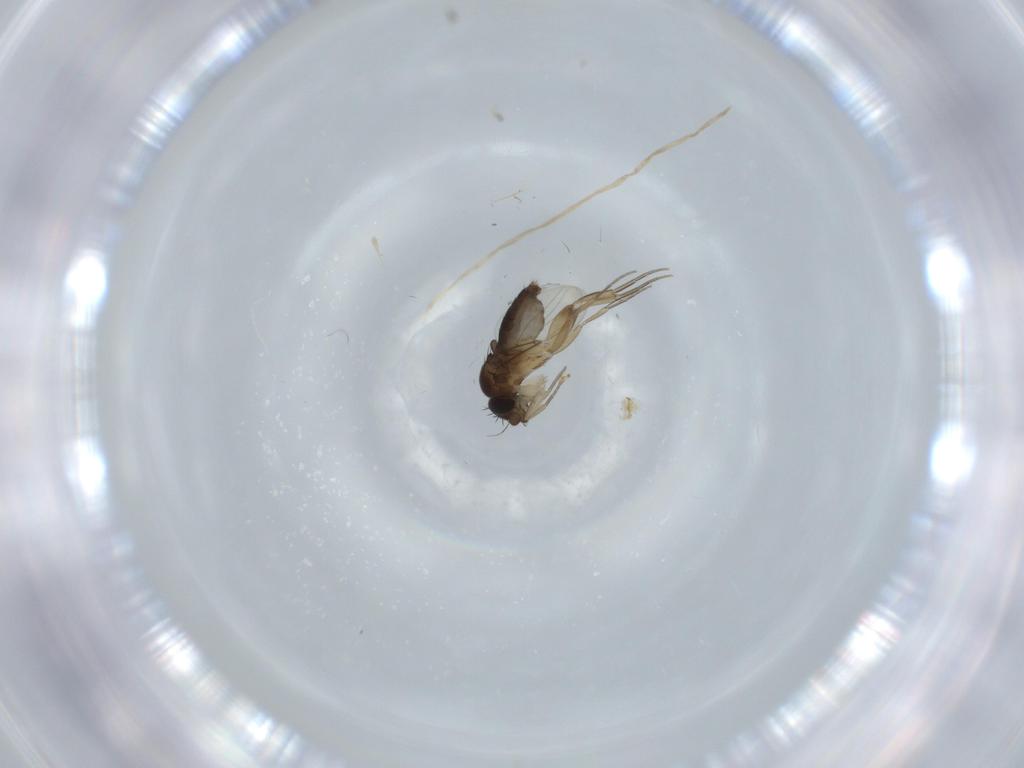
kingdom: Animalia
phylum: Arthropoda
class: Insecta
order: Diptera
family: Phoridae
